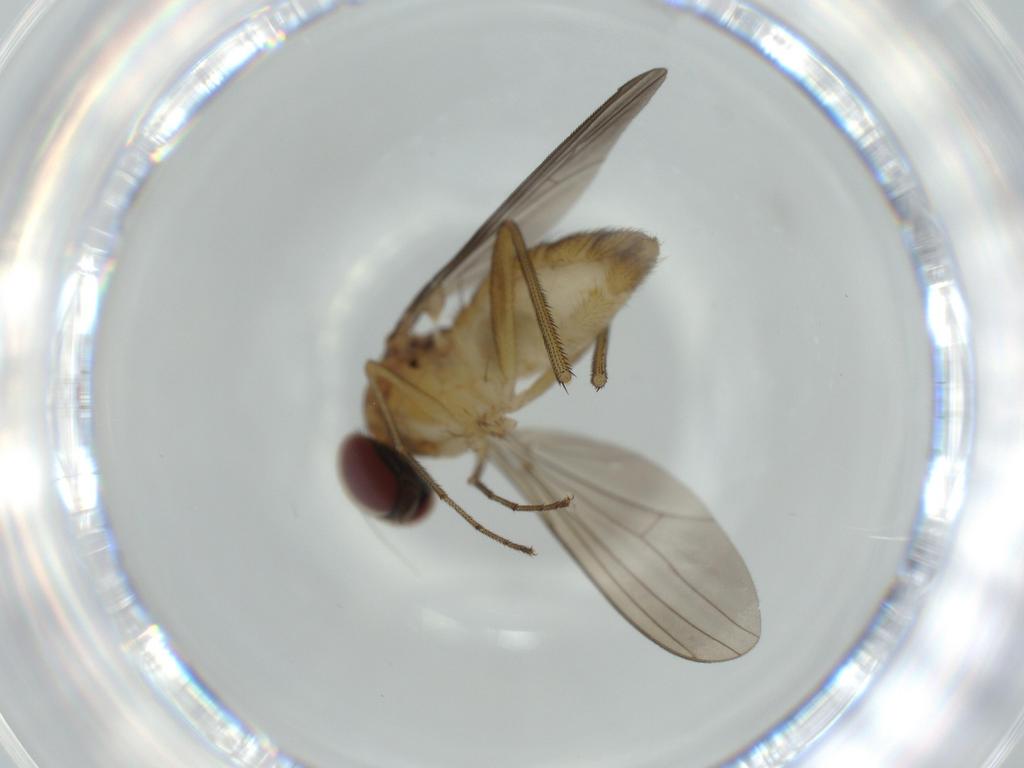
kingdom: Animalia
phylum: Arthropoda
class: Insecta
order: Diptera
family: Dolichopodidae
